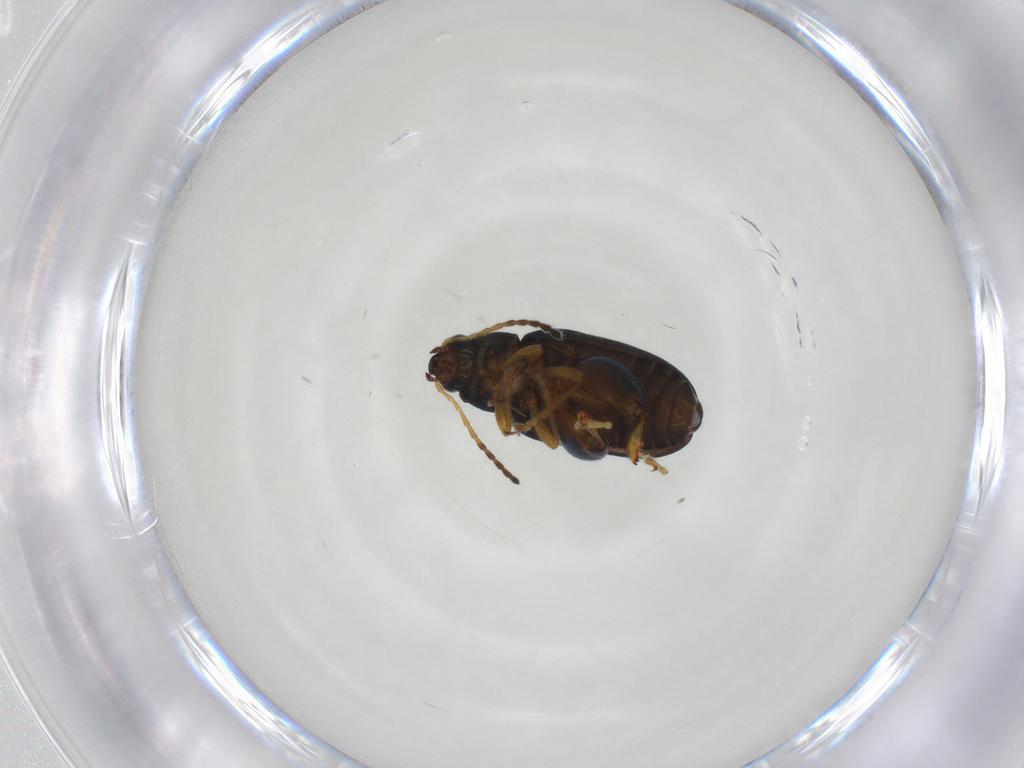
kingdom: Animalia
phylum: Arthropoda
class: Insecta
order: Coleoptera
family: Chrysomelidae
